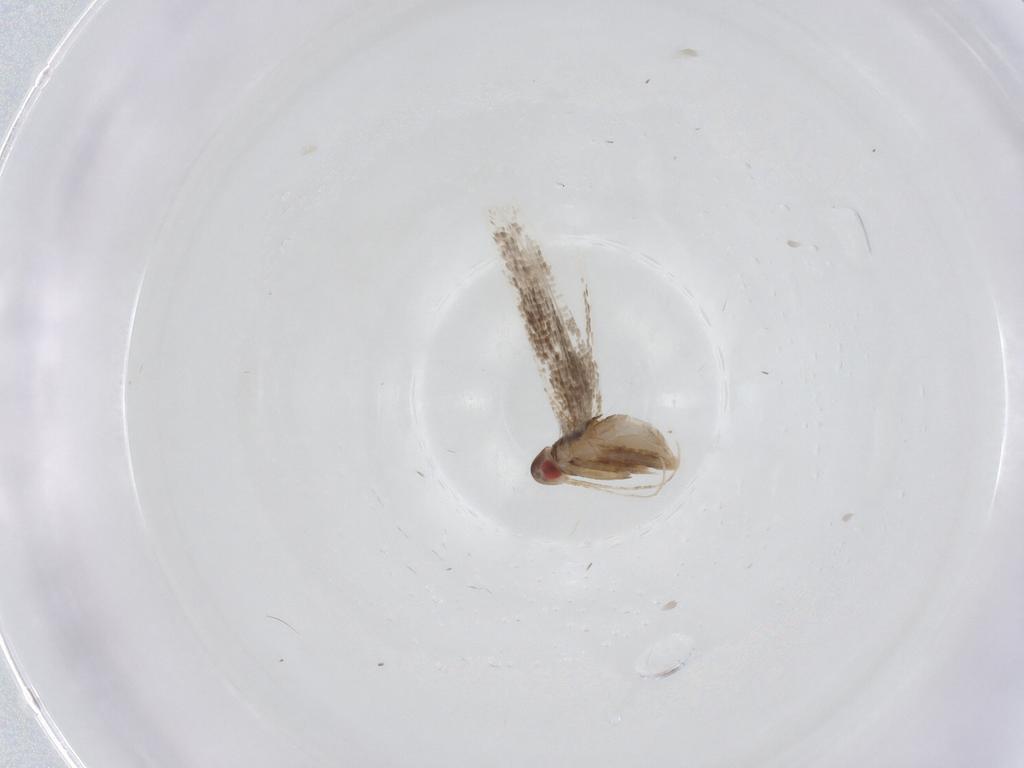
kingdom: Animalia
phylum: Arthropoda
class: Insecta
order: Lepidoptera
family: Cosmopterigidae
